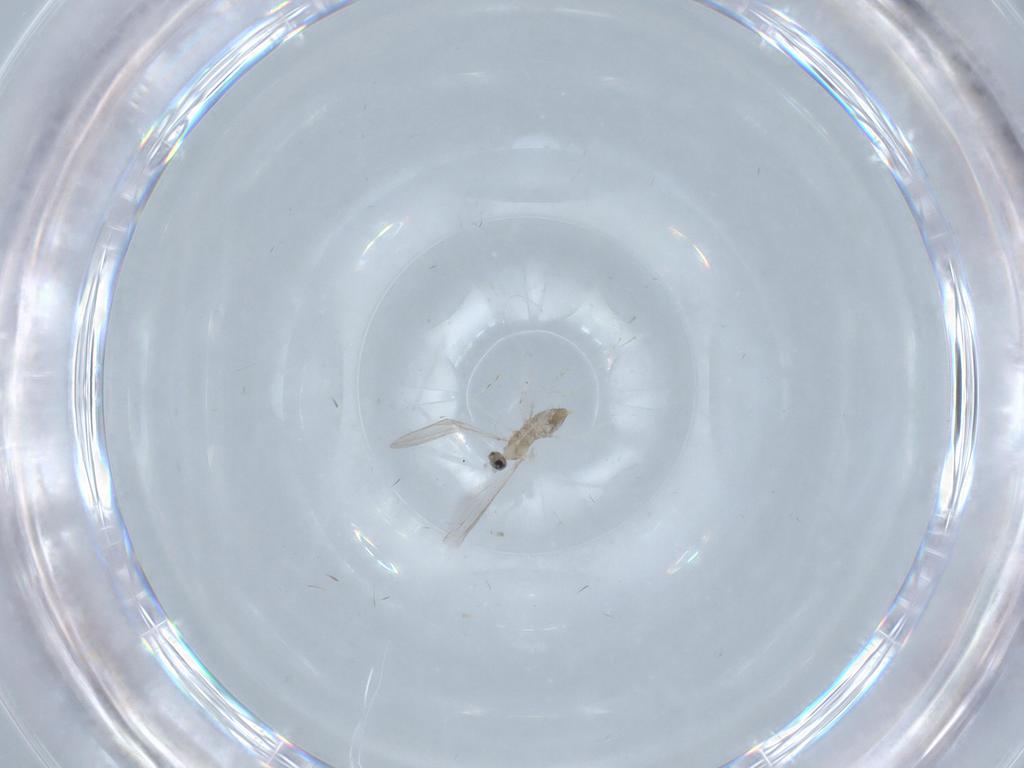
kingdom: Animalia
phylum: Arthropoda
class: Insecta
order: Diptera
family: Cecidomyiidae
